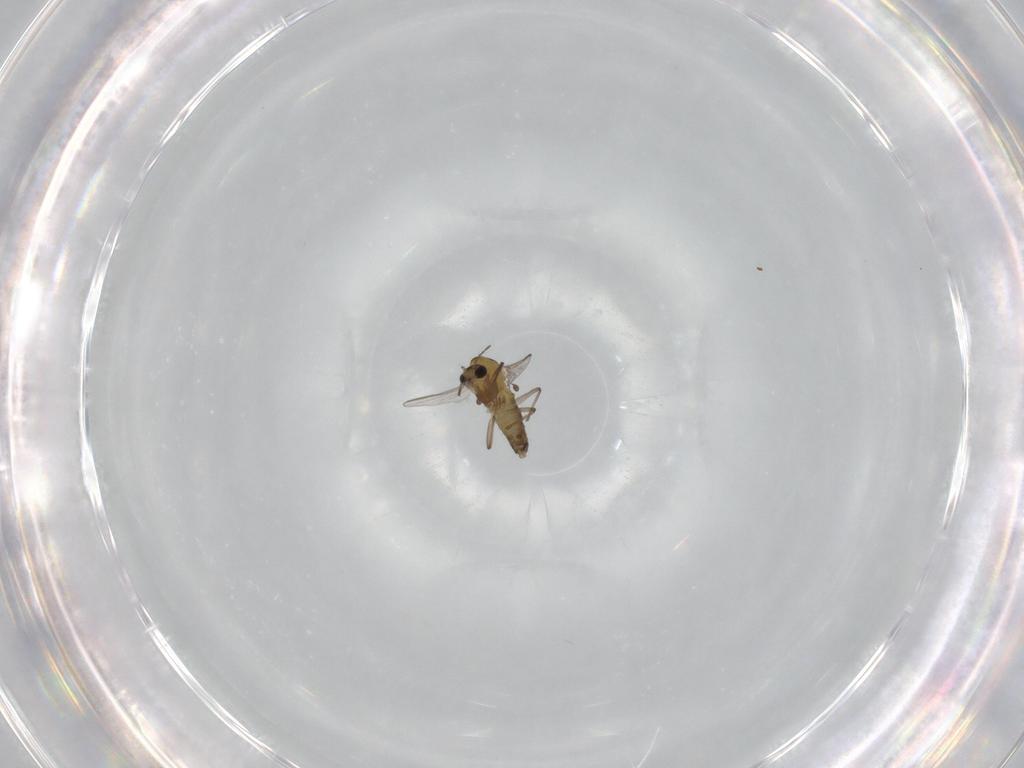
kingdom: Animalia
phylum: Arthropoda
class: Insecta
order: Diptera
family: Chironomidae
